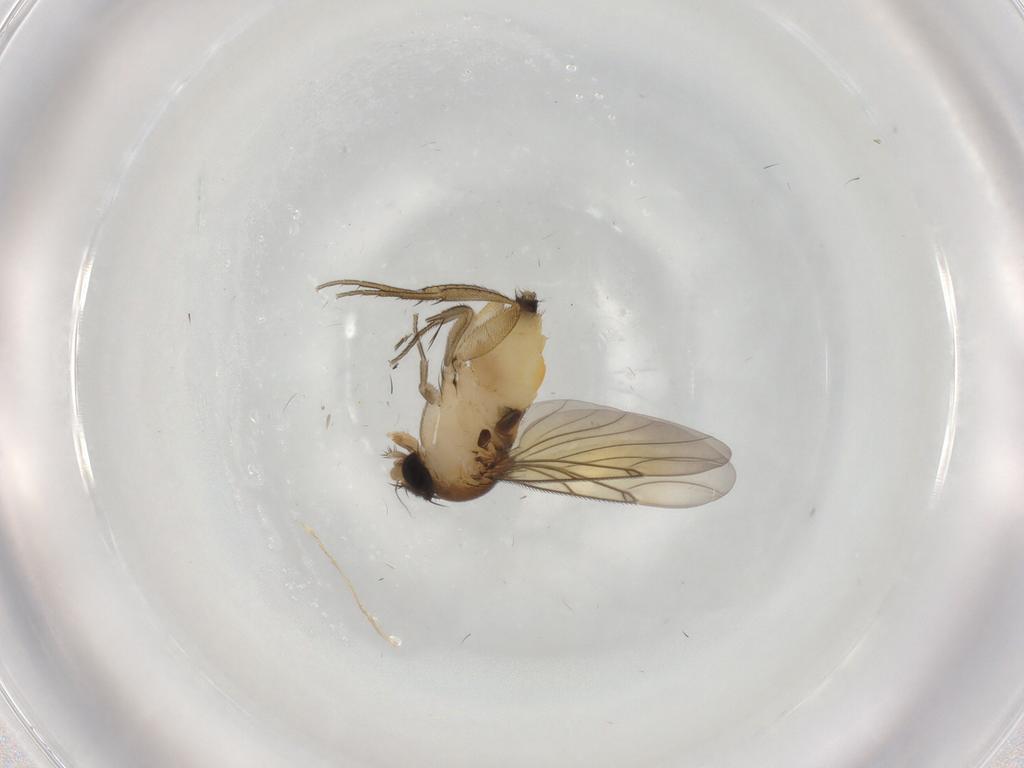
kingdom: Animalia
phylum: Arthropoda
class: Insecta
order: Diptera
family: Cecidomyiidae
